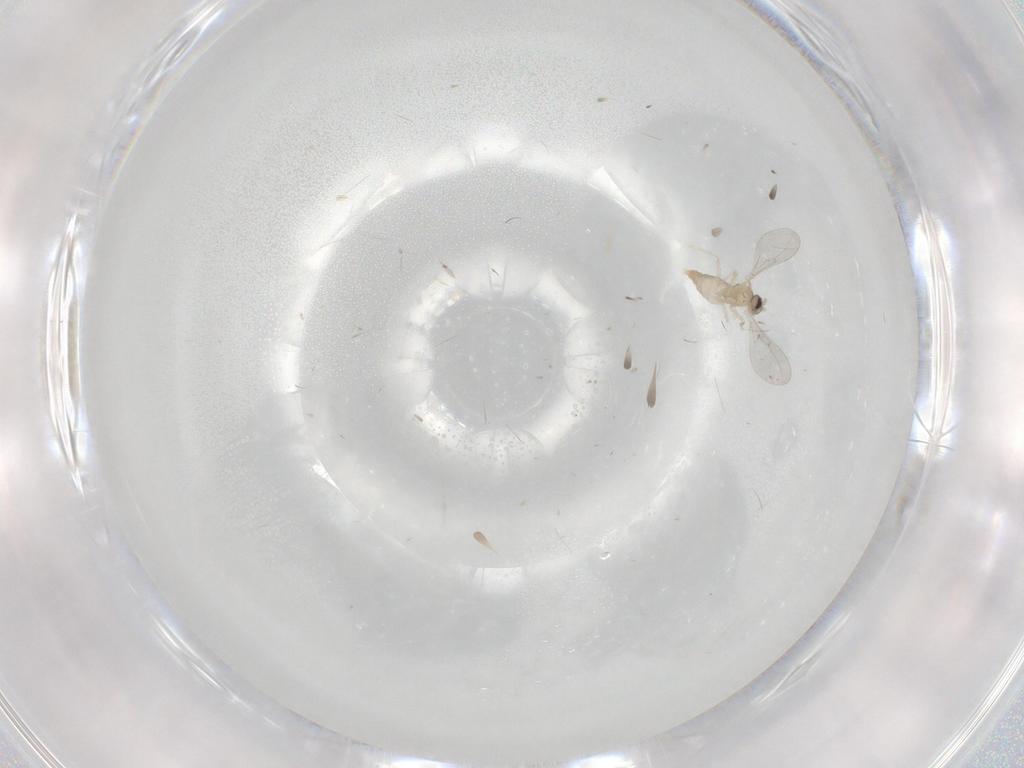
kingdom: Animalia
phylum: Arthropoda
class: Insecta
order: Diptera
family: Cecidomyiidae
